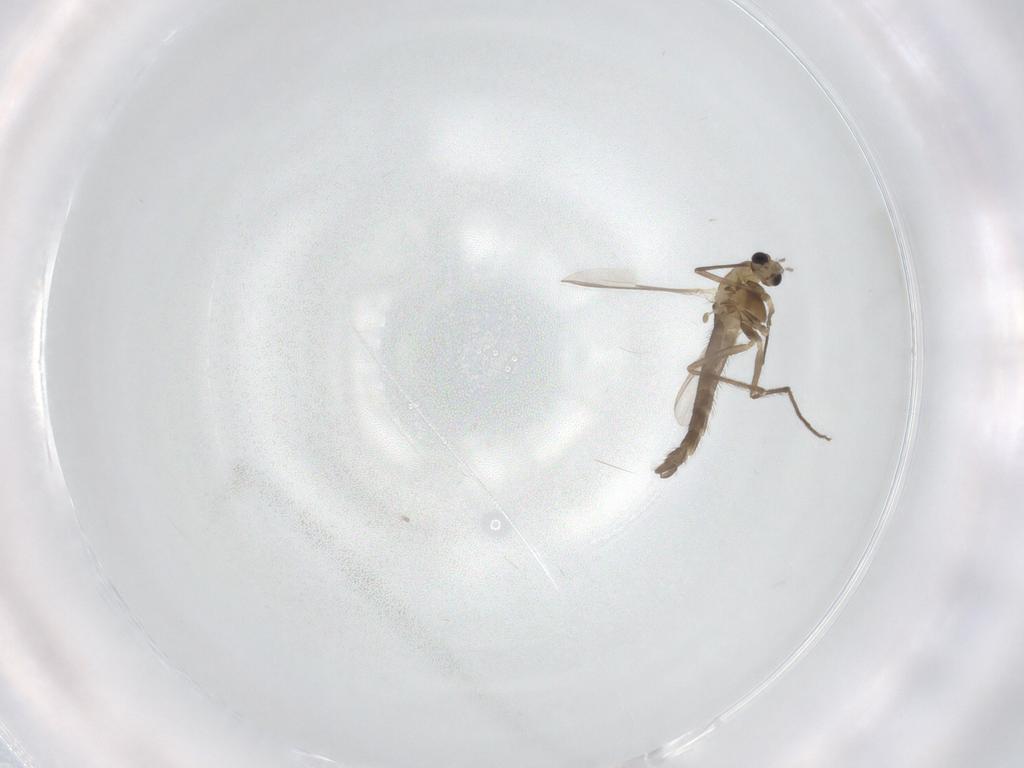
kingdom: Animalia
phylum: Arthropoda
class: Insecta
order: Diptera
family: Chironomidae
